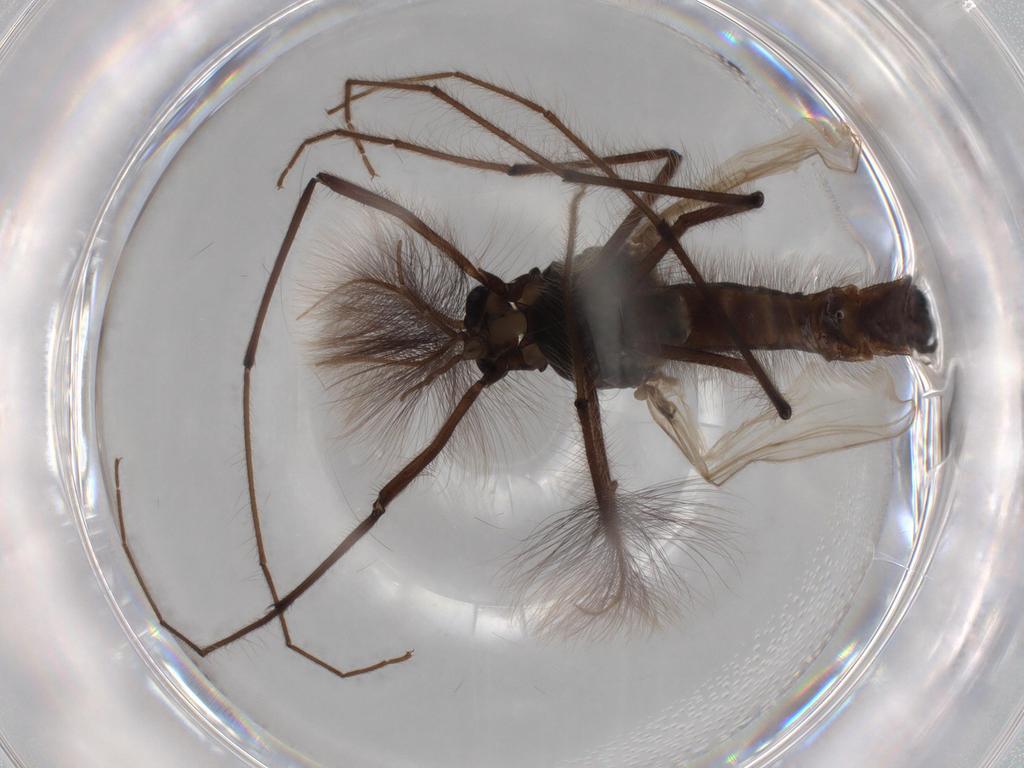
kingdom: Animalia
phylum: Arthropoda
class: Insecta
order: Diptera
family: Chironomidae
